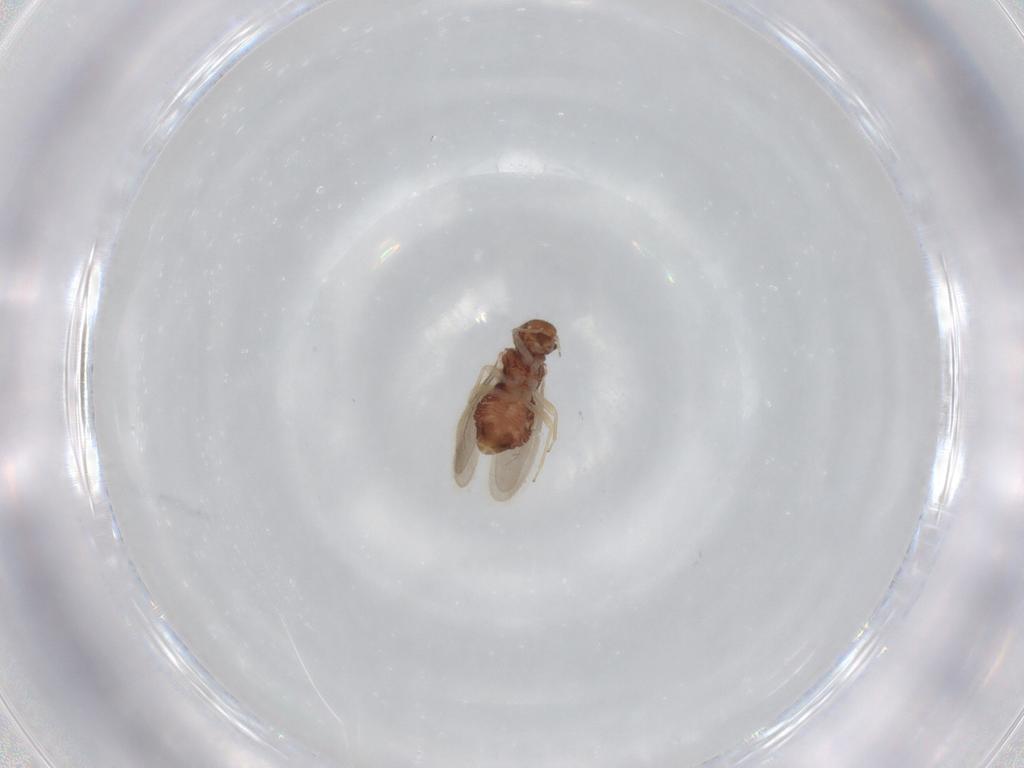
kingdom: Animalia
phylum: Arthropoda
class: Insecta
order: Psocodea
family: Archipsocidae
